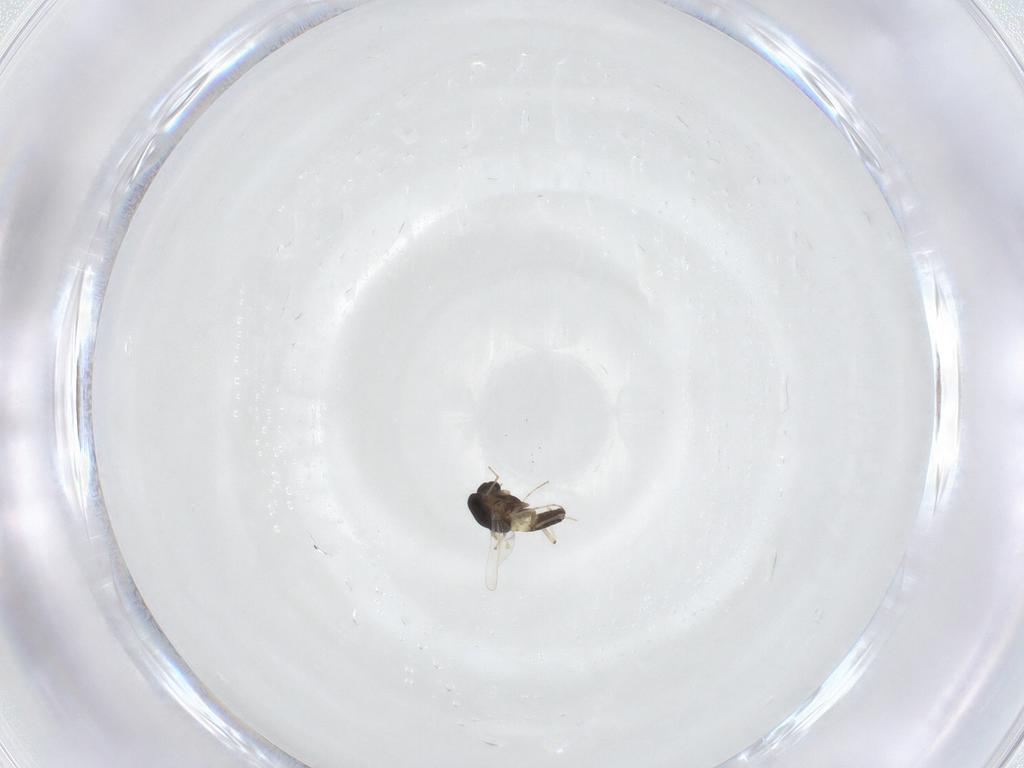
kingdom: Animalia
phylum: Arthropoda
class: Insecta
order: Diptera
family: Chironomidae
